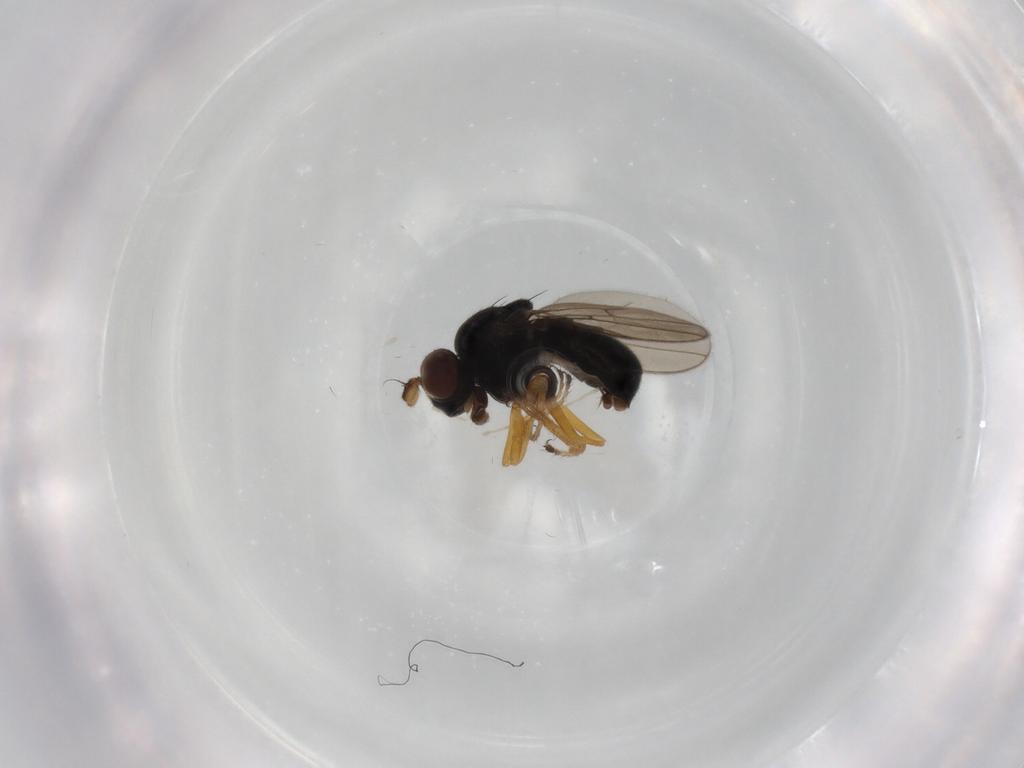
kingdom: Animalia
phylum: Arthropoda
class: Insecta
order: Diptera
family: Ephydridae
